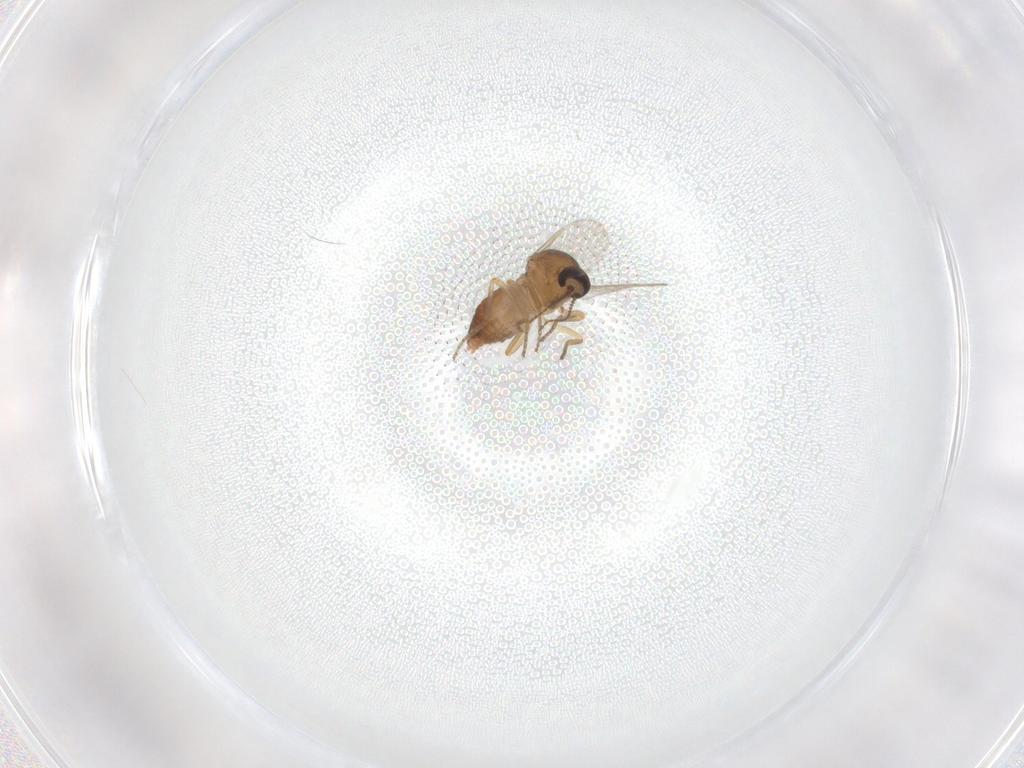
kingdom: Animalia
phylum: Arthropoda
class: Insecta
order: Diptera
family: Ceratopogonidae
